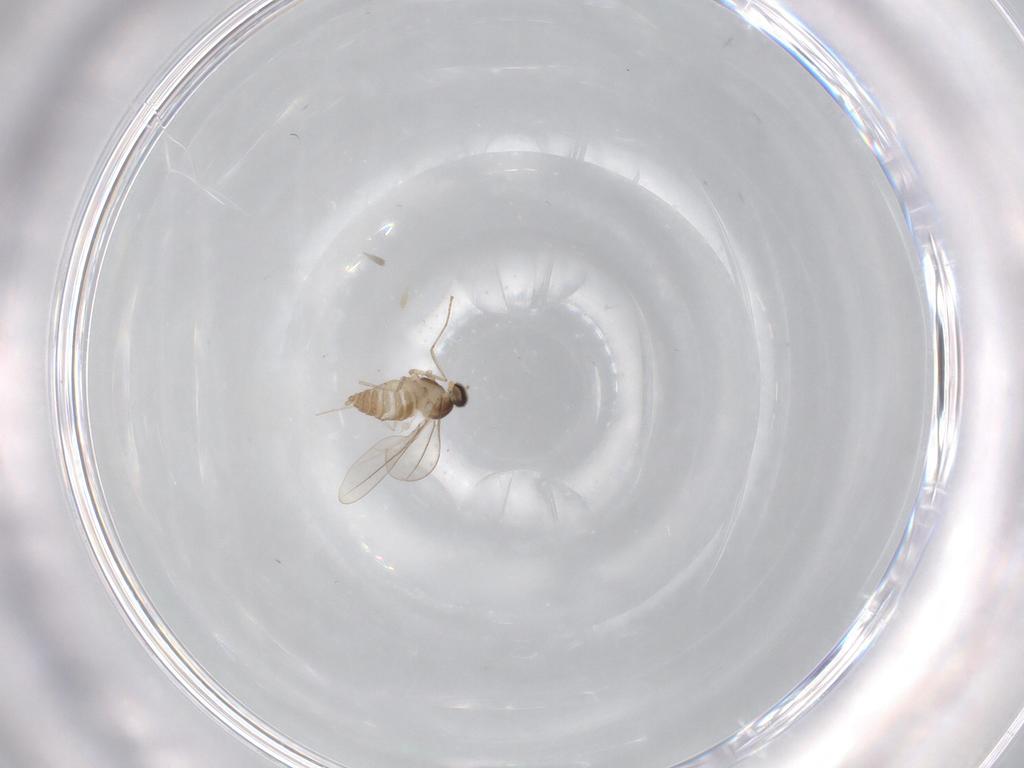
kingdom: Animalia
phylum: Arthropoda
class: Insecta
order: Diptera
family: Cecidomyiidae
